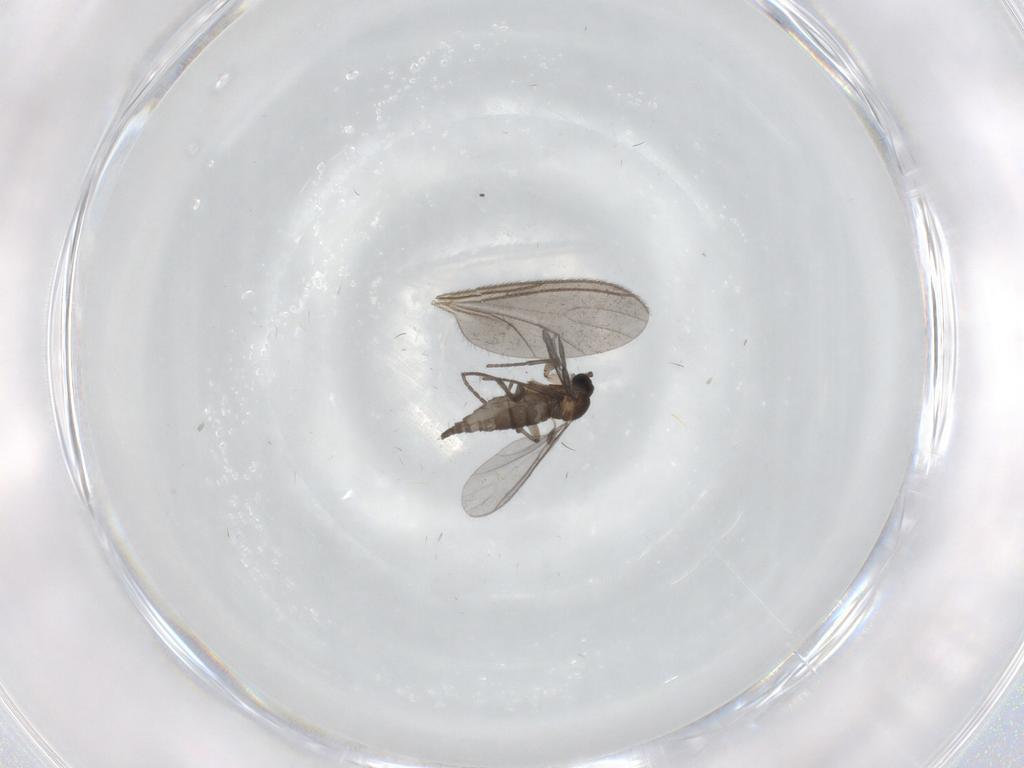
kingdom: Animalia
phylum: Arthropoda
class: Insecta
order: Diptera
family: Sciaridae
